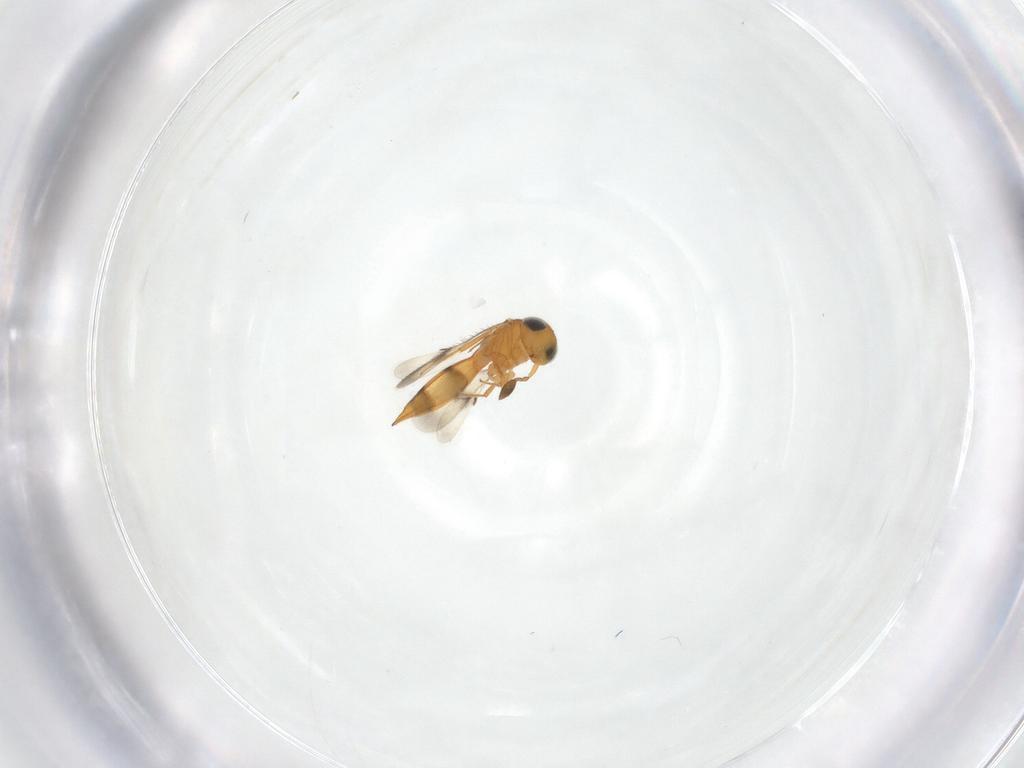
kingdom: Animalia
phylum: Arthropoda
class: Insecta
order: Hymenoptera
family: Scelionidae
